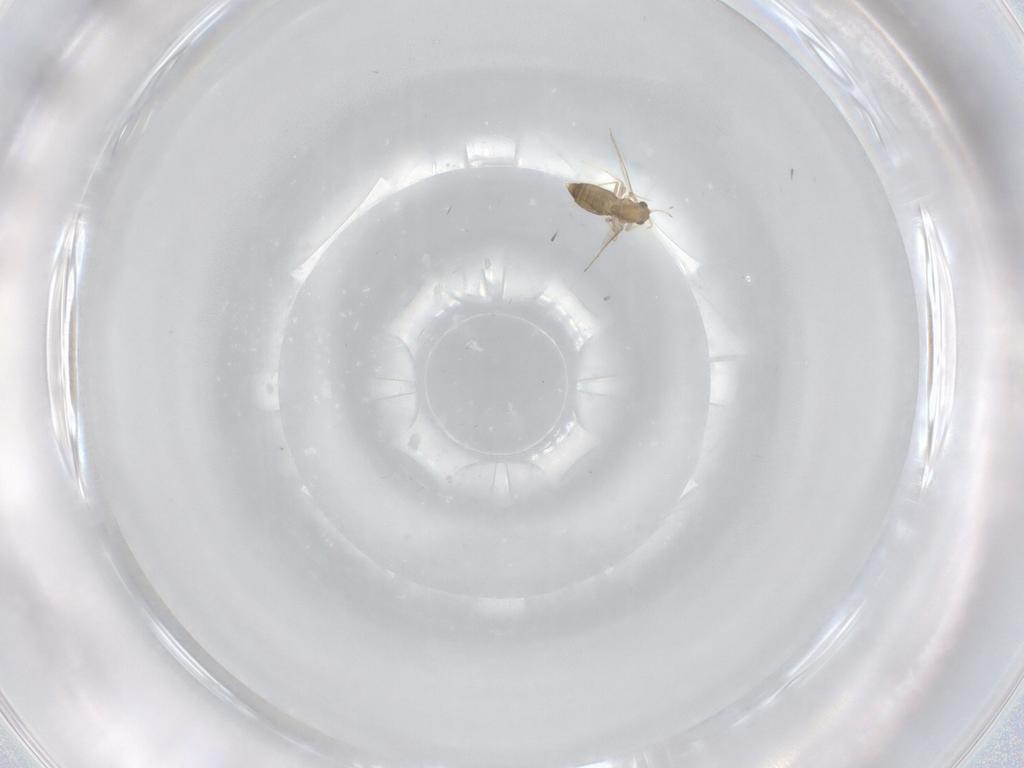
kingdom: Animalia
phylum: Arthropoda
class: Insecta
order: Diptera
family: Chironomidae
